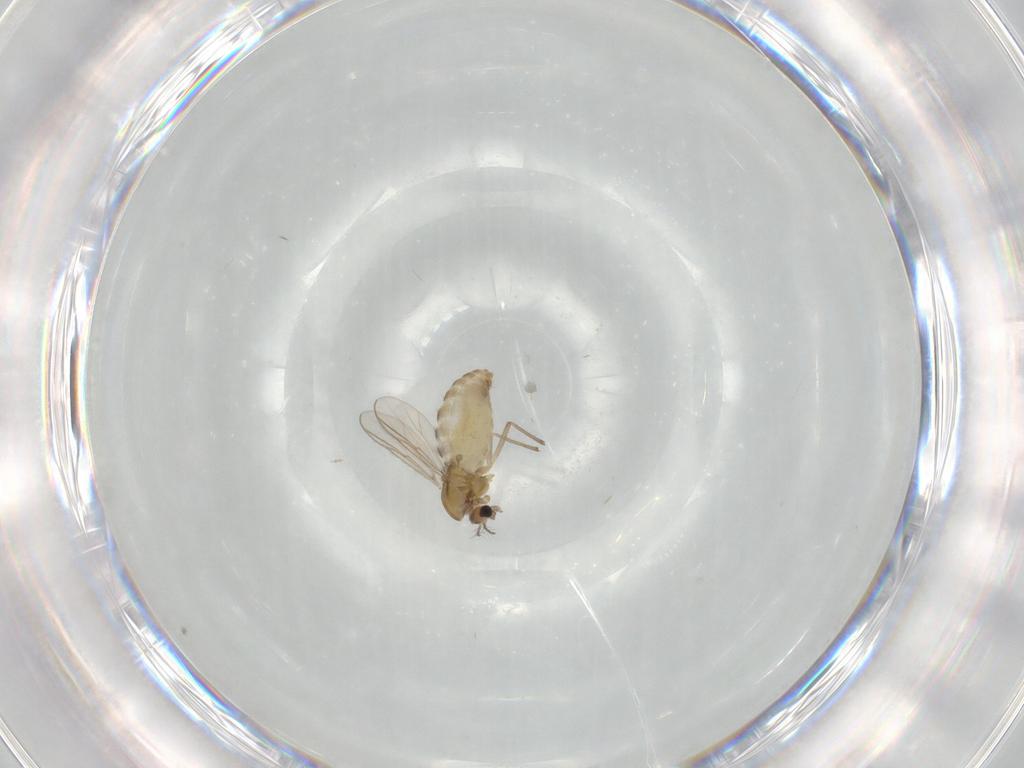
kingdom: Animalia
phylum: Arthropoda
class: Insecta
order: Diptera
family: Chironomidae
